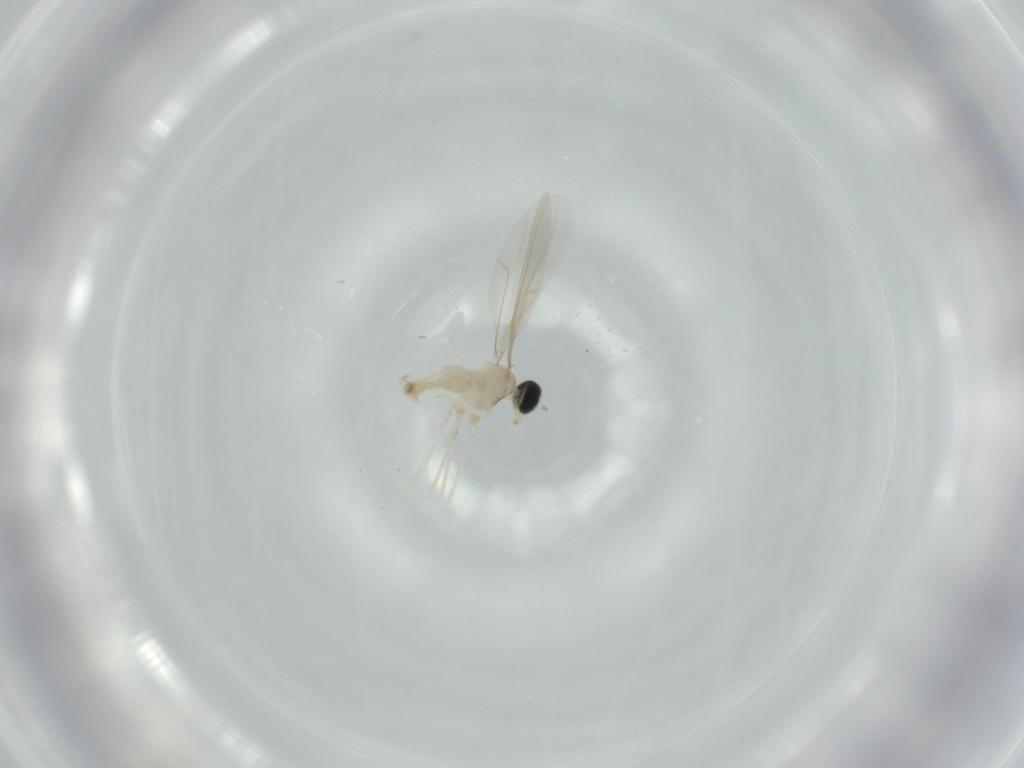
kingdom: Animalia
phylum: Arthropoda
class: Insecta
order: Diptera
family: Cecidomyiidae
